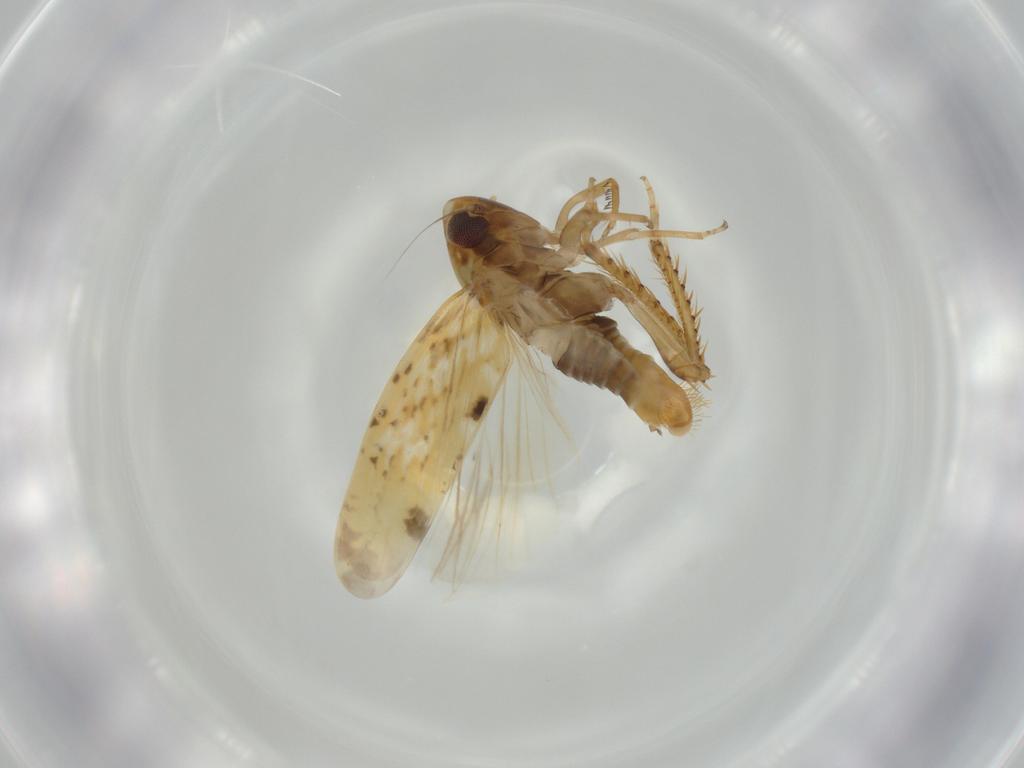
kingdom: Animalia
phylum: Arthropoda
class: Insecta
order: Hemiptera
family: Cicadellidae
